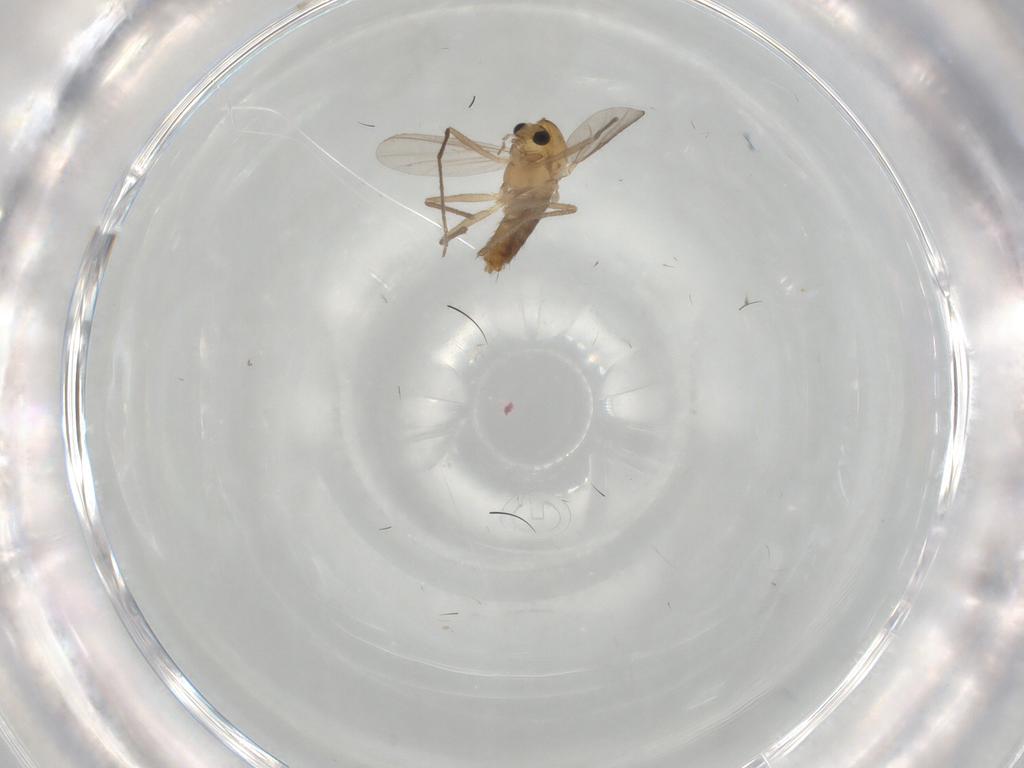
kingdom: Animalia
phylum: Arthropoda
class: Insecta
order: Diptera
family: Chironomidae
